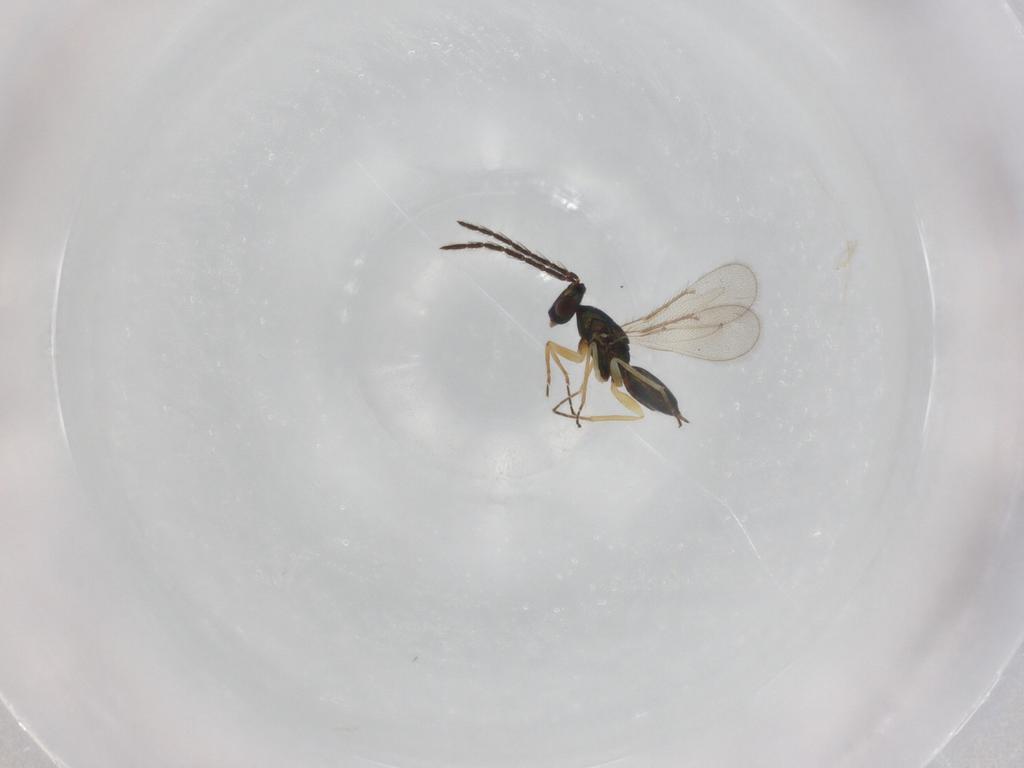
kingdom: Animalia
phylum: Arthropoda
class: Insecta
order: Hymenoptera
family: Eulophidae
